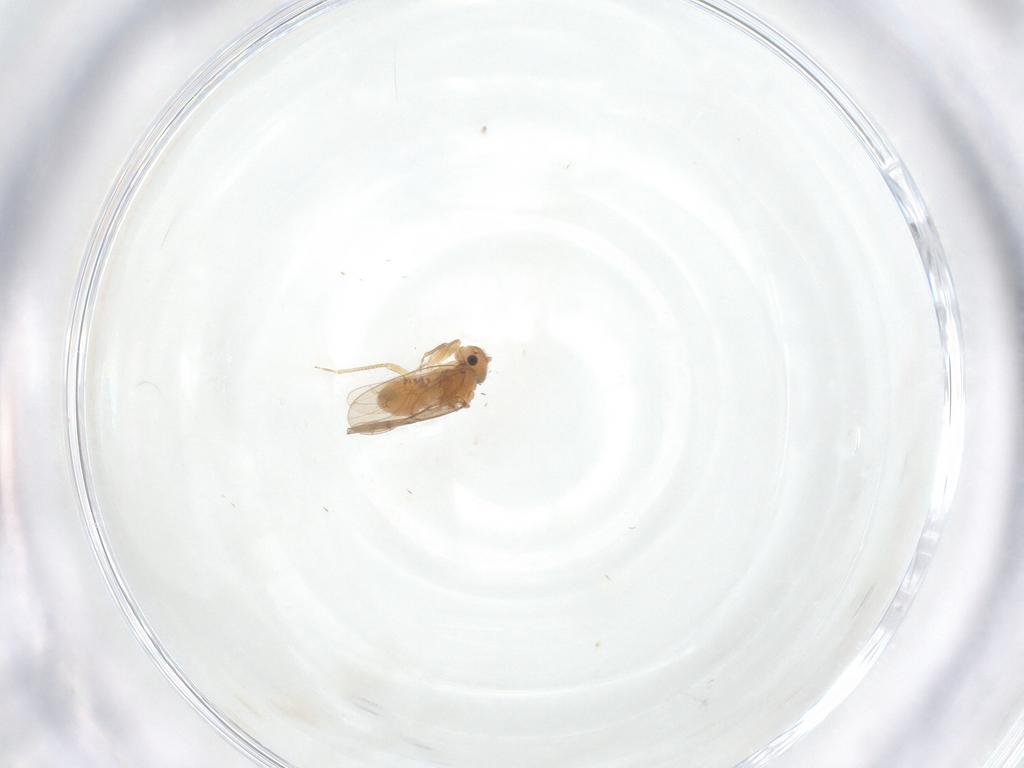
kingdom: Animalia
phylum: Arthropoda
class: Insecta
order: Psocodea
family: Ectopsocidae
